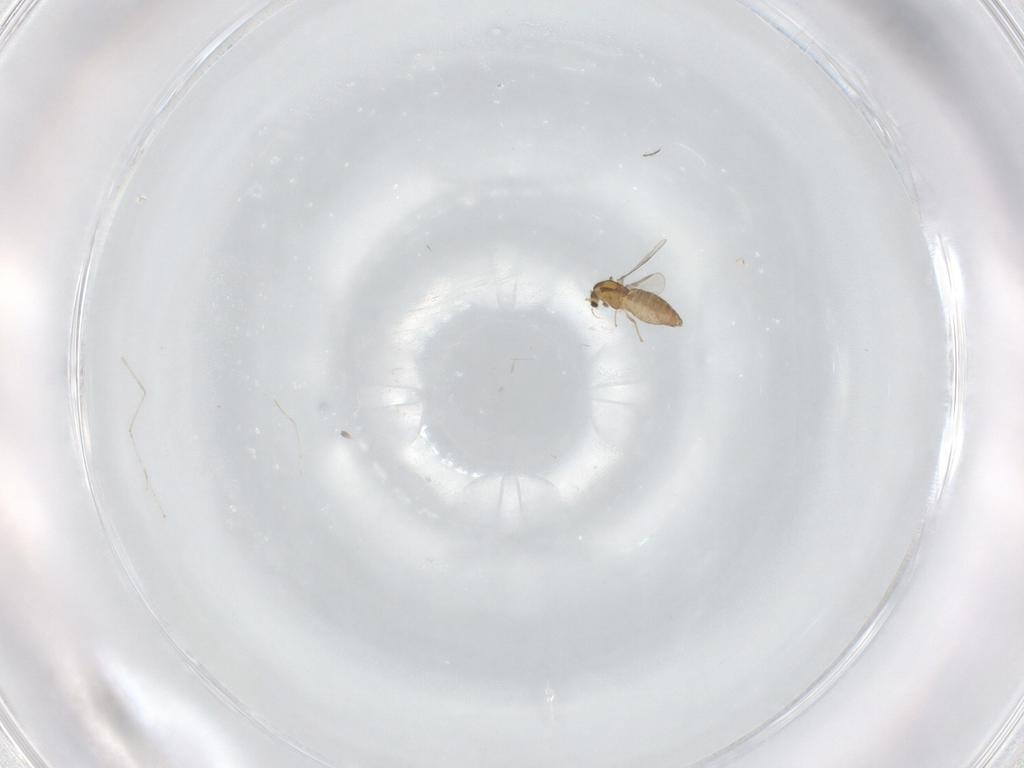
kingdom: Animalia
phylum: Arthropoda
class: Insecta
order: Diptera
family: Chironomidae
